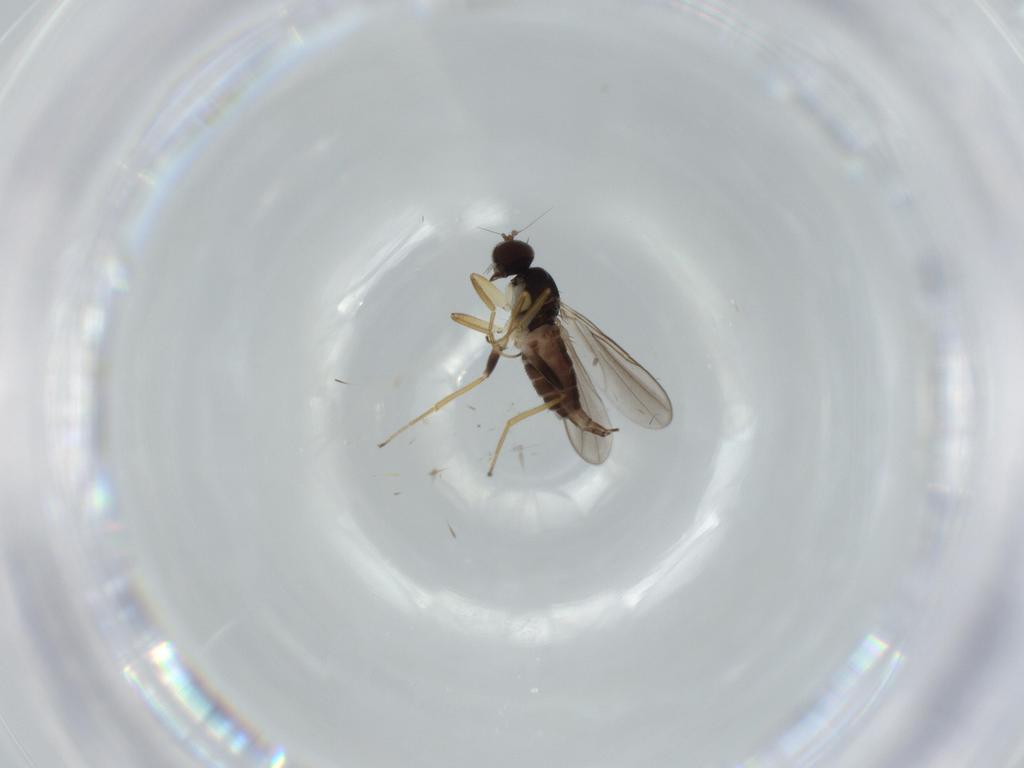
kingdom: Animalia
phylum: Arthropoda
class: Insecta
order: Diptera
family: Hybotidae
